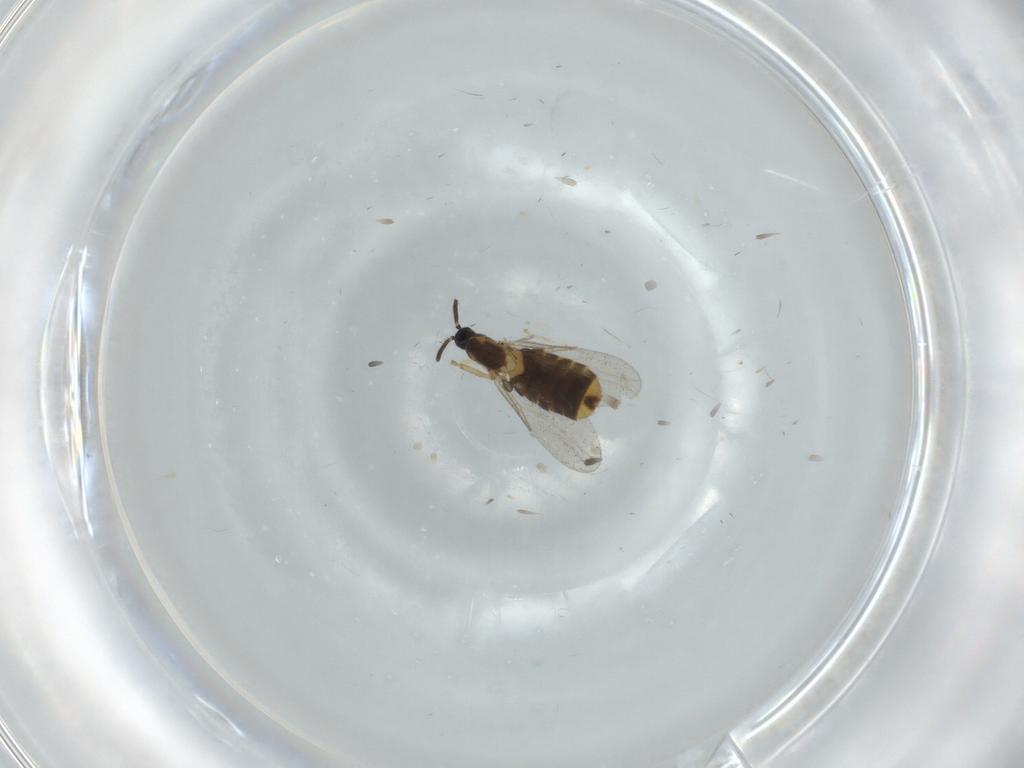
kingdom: Animalia
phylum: Arthropoda
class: Insecta
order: Diptera
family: Scatopsidae
